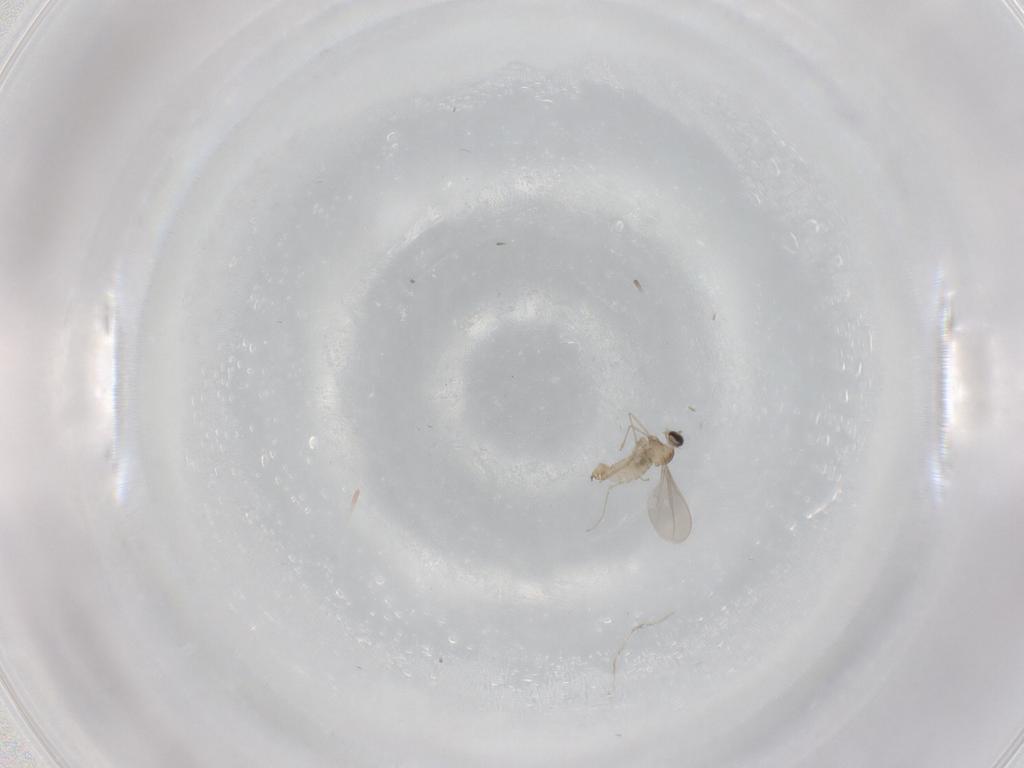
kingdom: Animalia
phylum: Arthropoda
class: Insecta
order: Diptera
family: Cecidomyiidae
